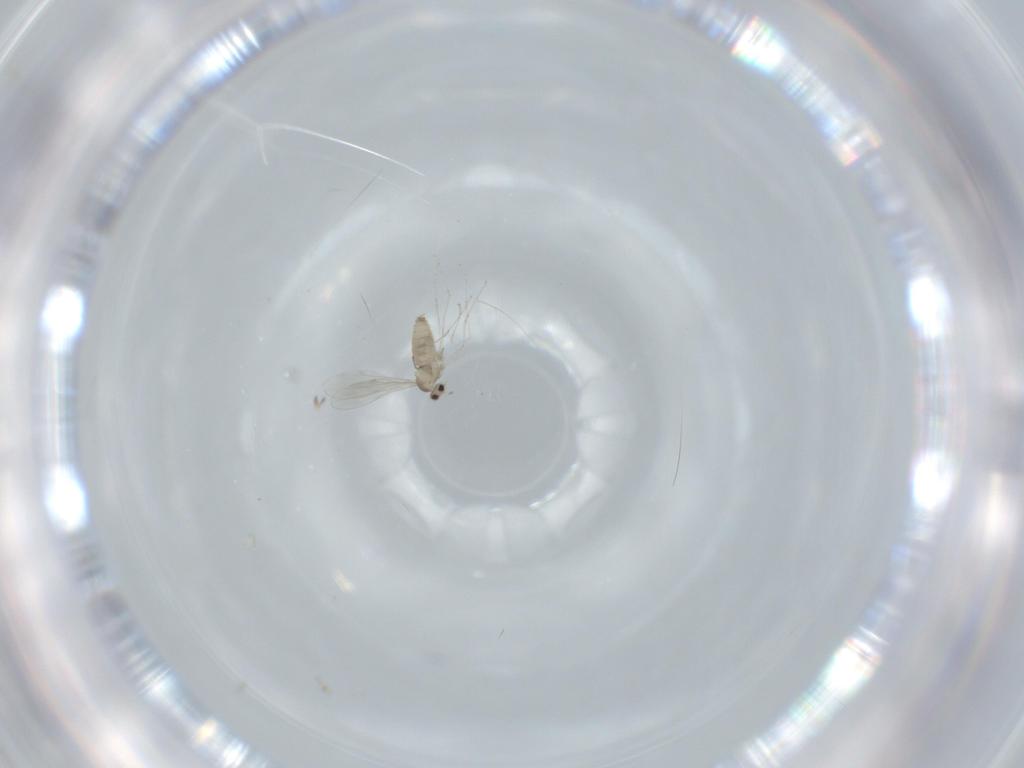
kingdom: Animalia
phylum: Arthropoda
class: Insecta
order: Diptera
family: Cecidomyiidae
